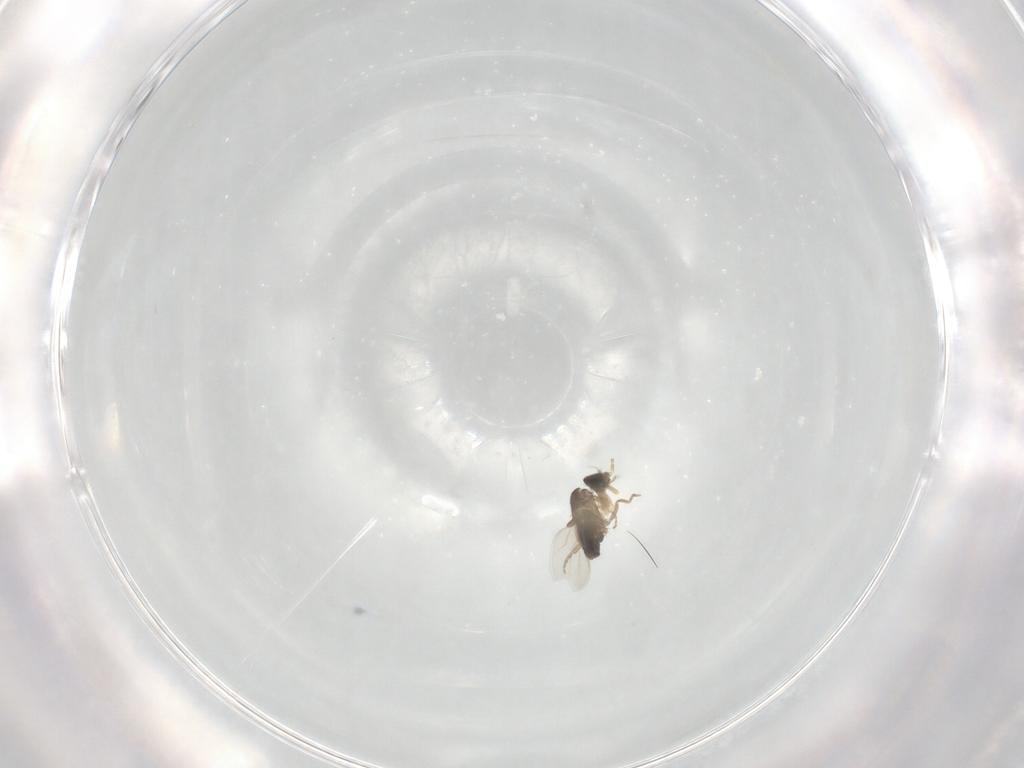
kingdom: Animalia
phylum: Arthropoda
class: Insecta
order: Diptera
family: Phoridae
